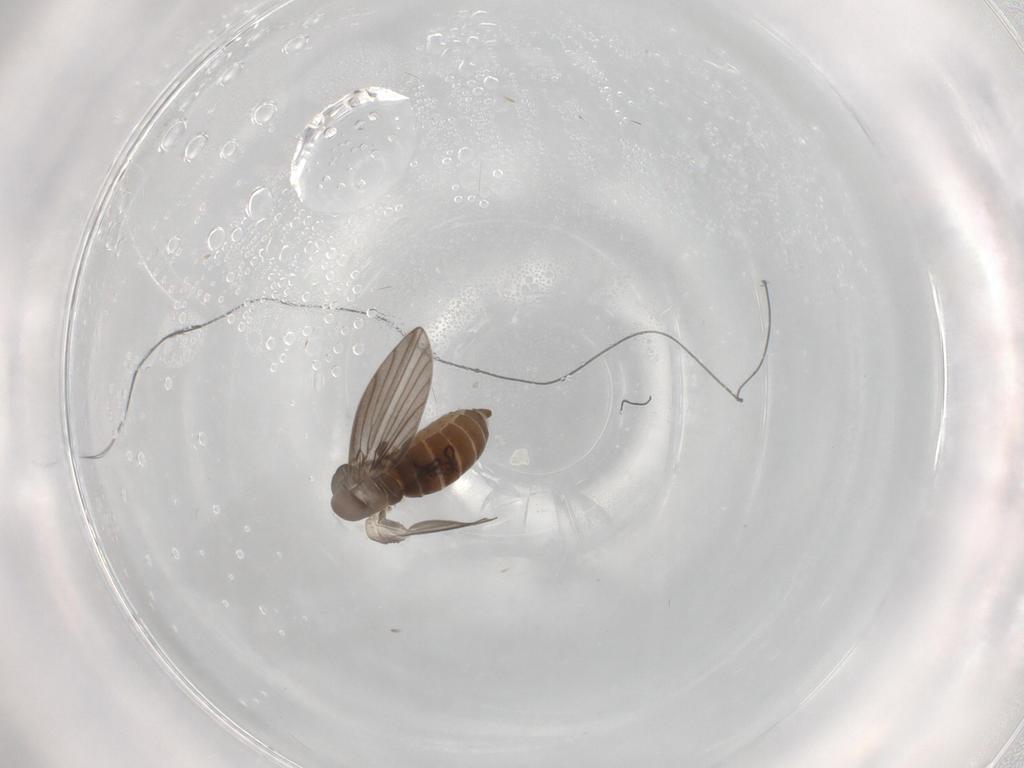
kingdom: Animalia
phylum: Arthropoda
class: Insecta
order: Diptera
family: Psychodidae
